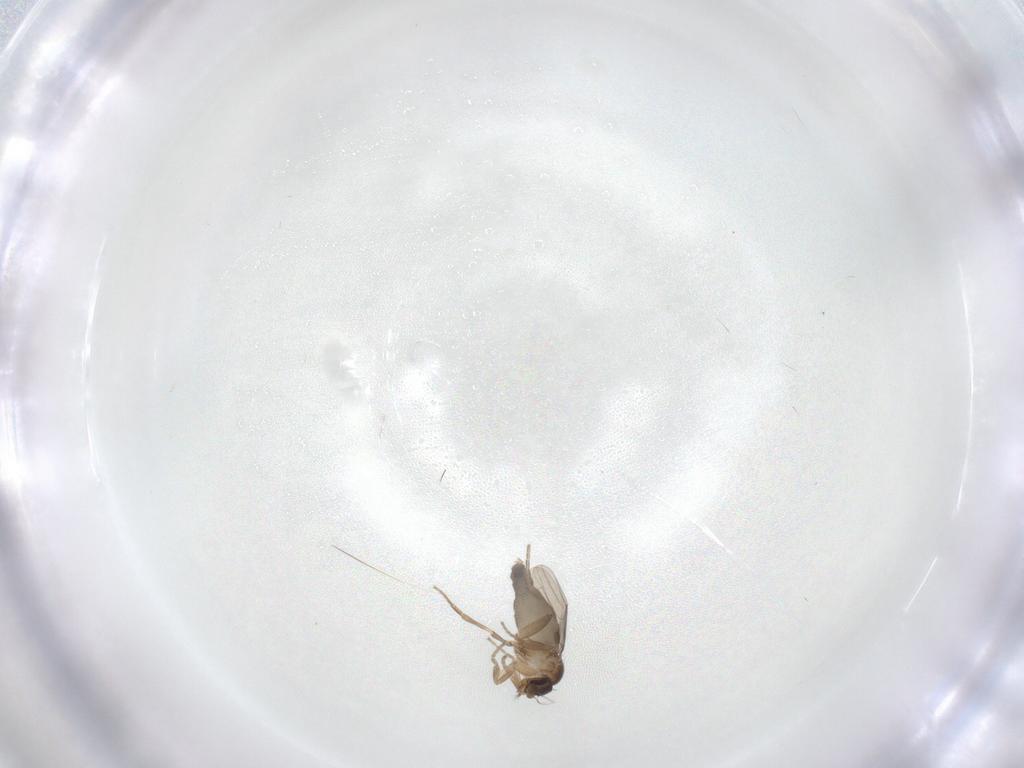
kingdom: Animalia
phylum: Arthropoda
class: Insecta
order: Diptera
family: Phoridae
